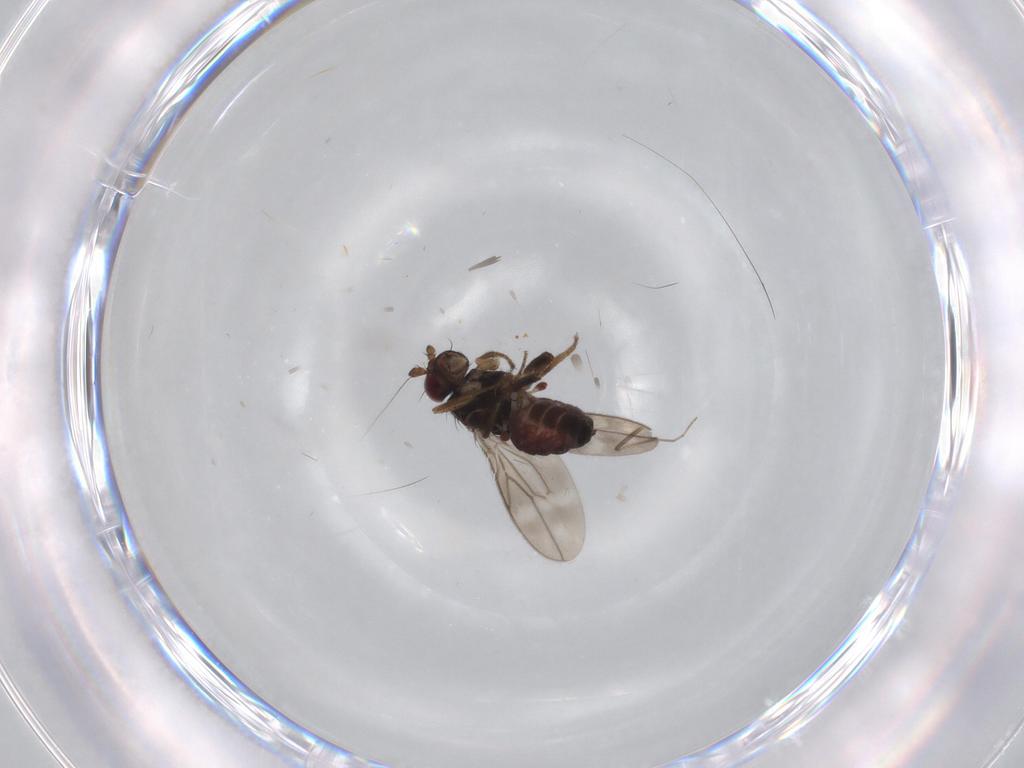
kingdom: Animalia
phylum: Arthropoda
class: Insecta
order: Diptera
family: Sphaeroceridae
